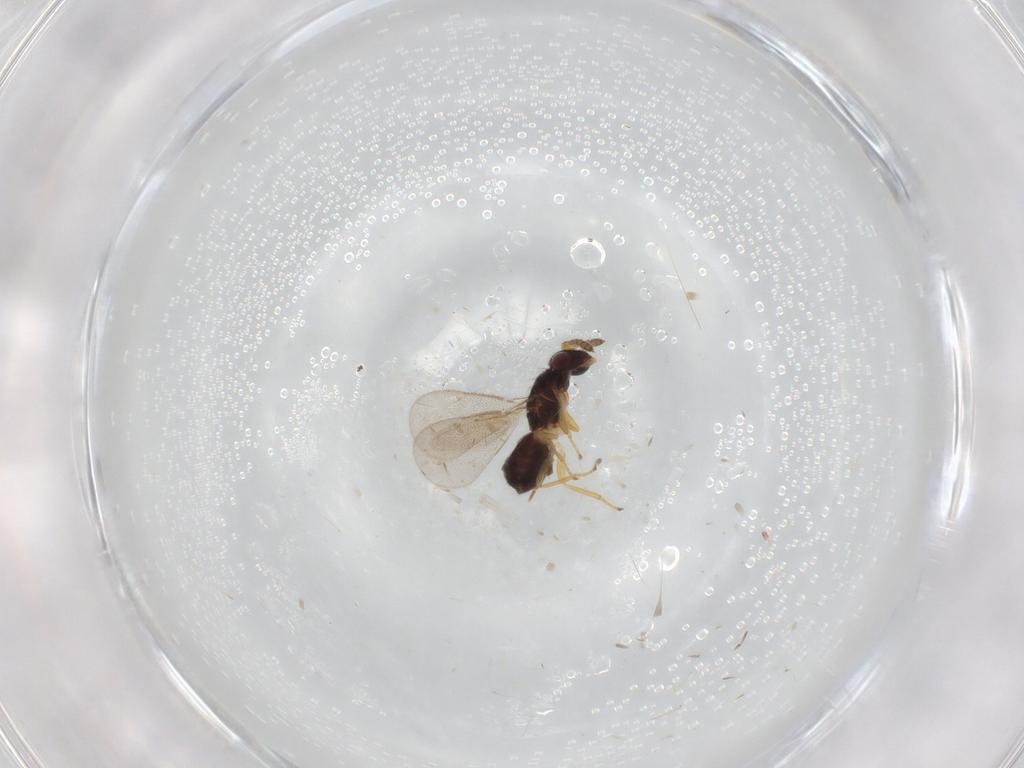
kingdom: Animalia
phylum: Arthropoda
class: Insecta
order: Hymenoptera
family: Eulophidae
